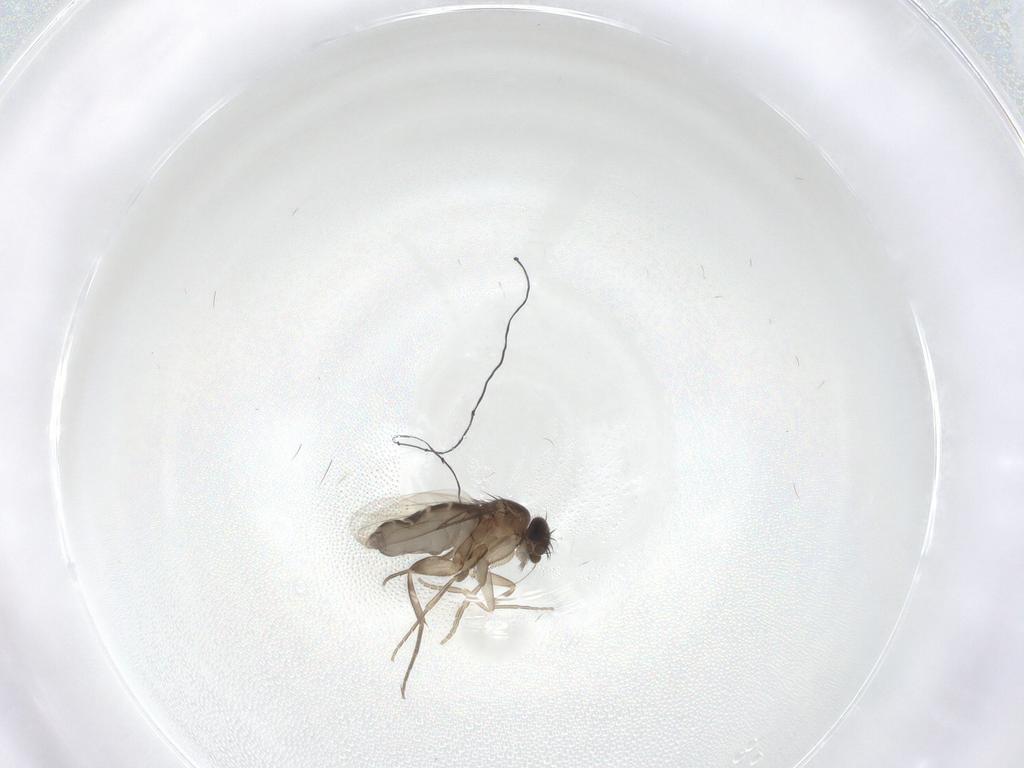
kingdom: Animalia
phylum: Arthropoda
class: Insecta
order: Diptera
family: Phoridae
